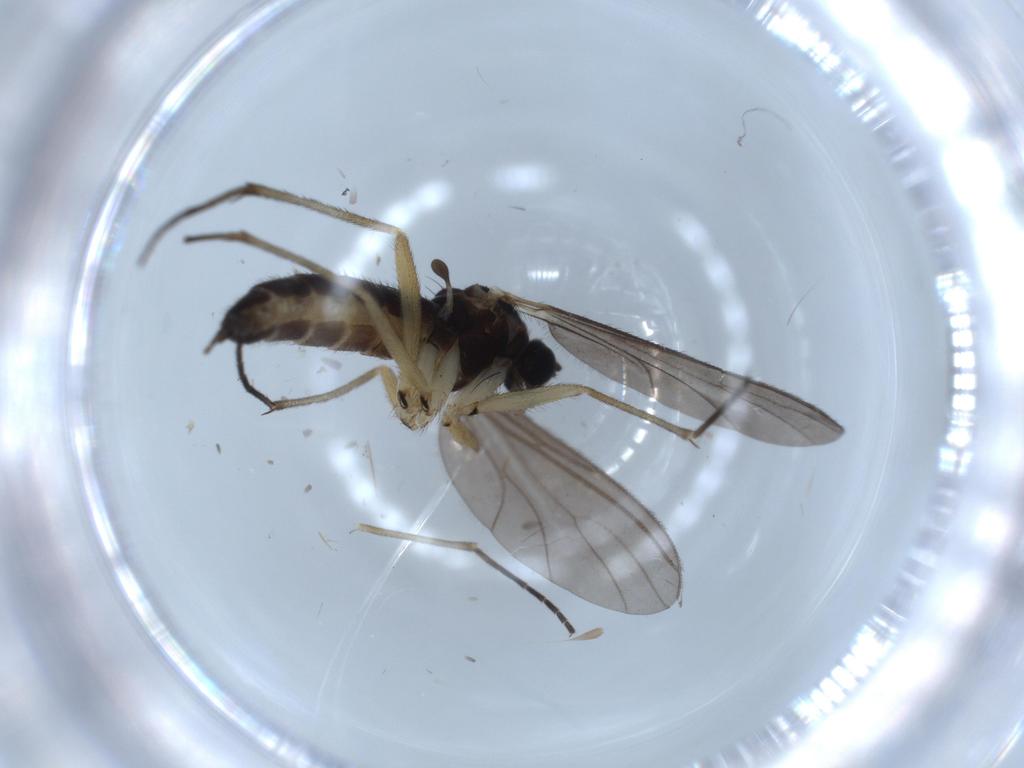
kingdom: Animalia
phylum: Arthropoda
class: Insecta
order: Diptera
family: Sciaridae
